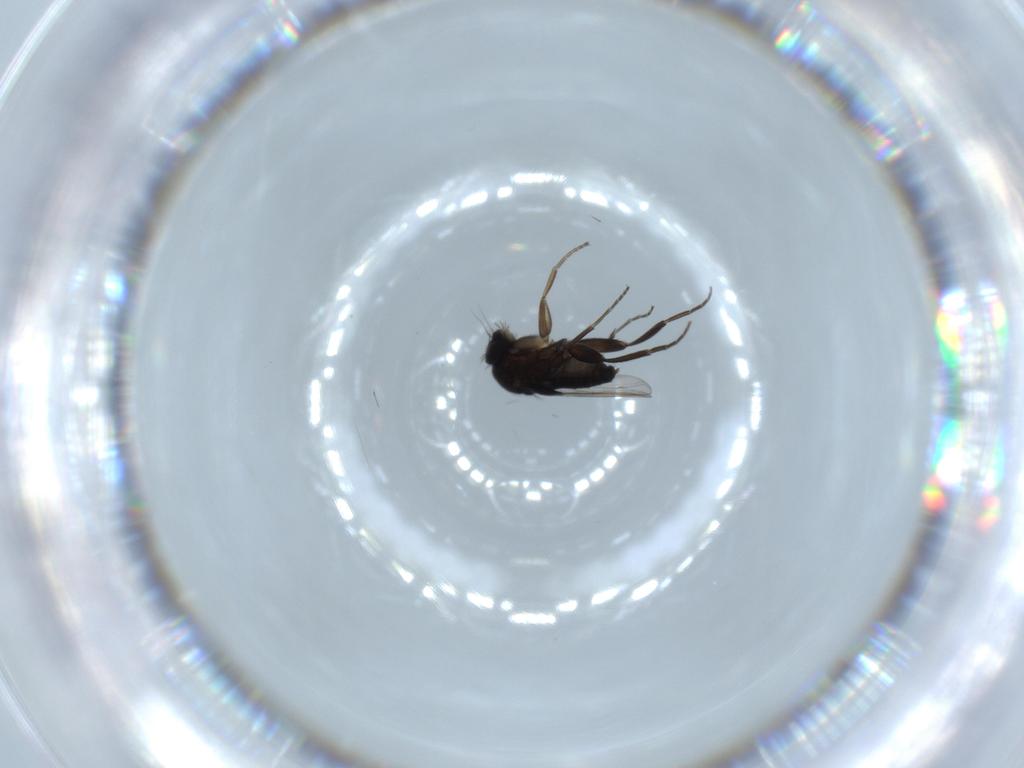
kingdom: Animalia
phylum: Arthropoda
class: Insecta
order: Diptera
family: Phoridae
